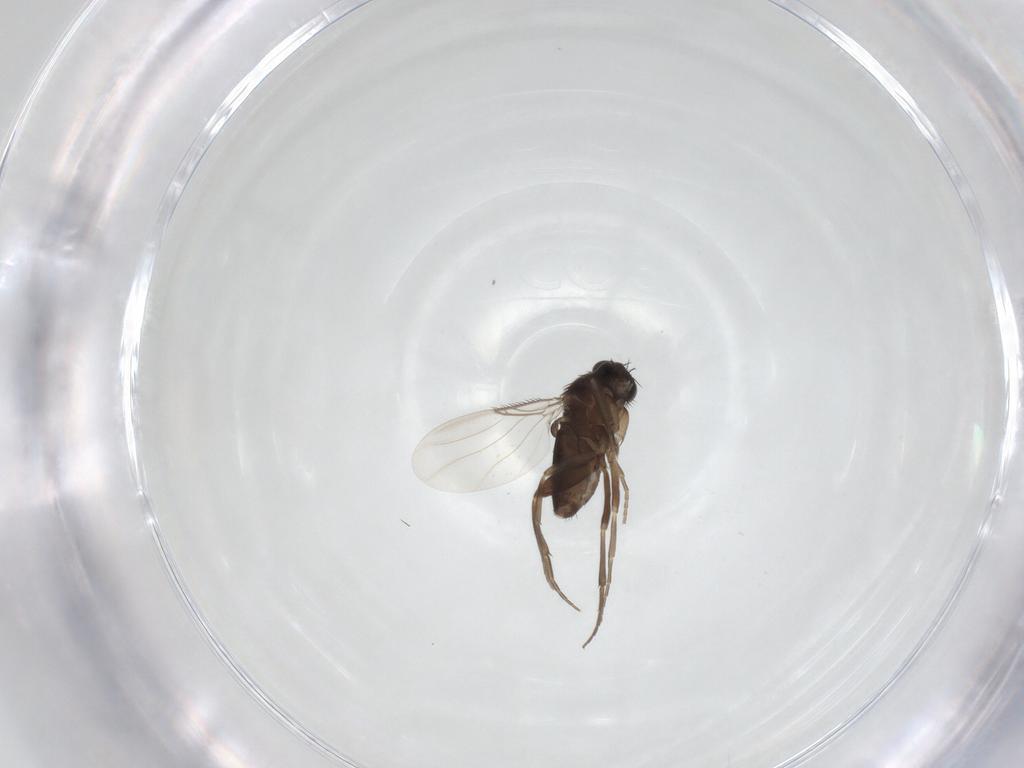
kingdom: Animalia
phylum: Arthropoda
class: Insecta
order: Diptera
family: Phoridae
